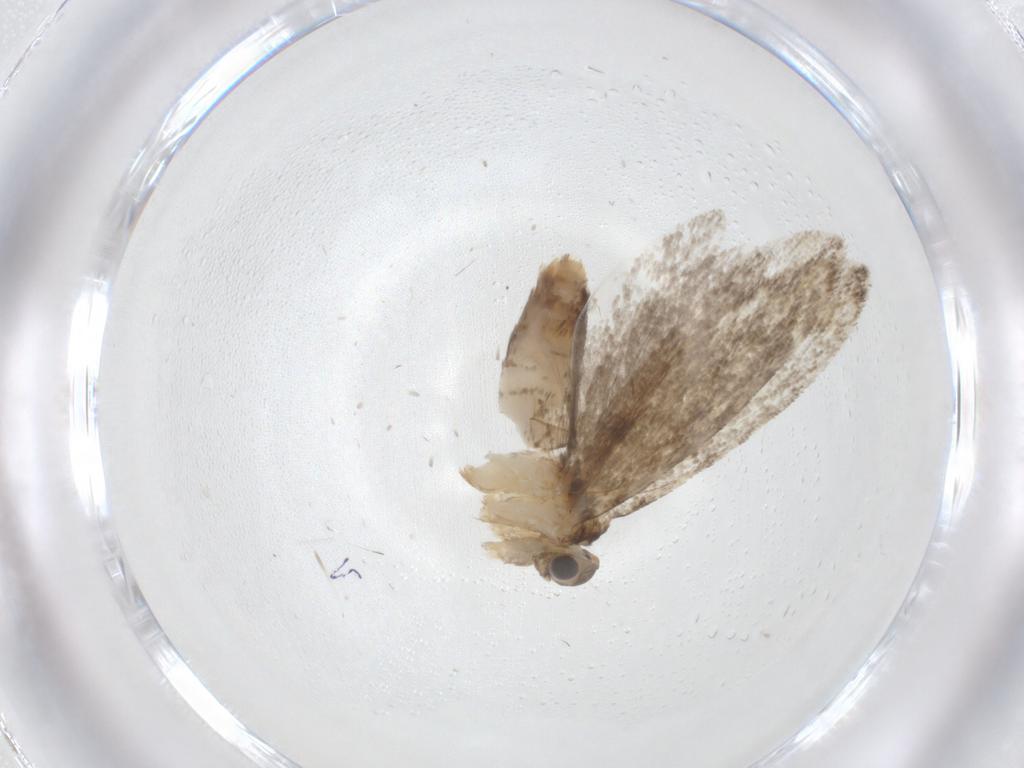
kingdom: Animalia
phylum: Arthropoda
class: Insecta
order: Lepidoptera
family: Tineidae
